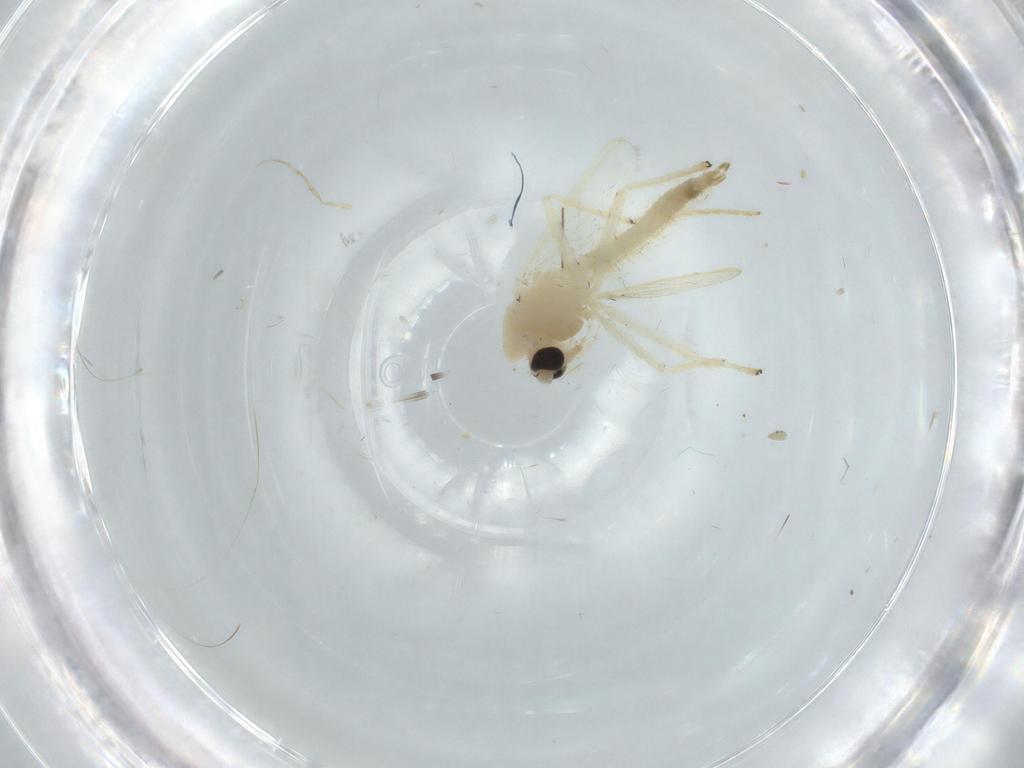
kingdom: Animalia
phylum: Arthropoda
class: Insecta
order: Diptera
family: Chironomidae
